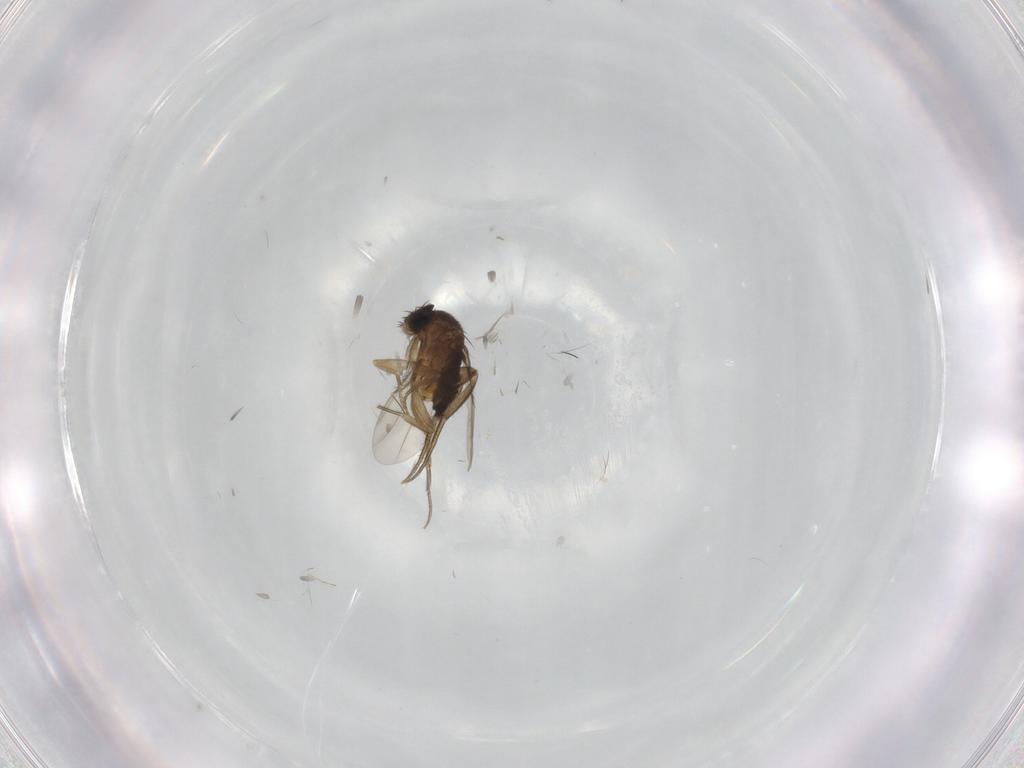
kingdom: Animalia
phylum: Arthropoda
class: Insecta
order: Diptera
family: Phoridae
